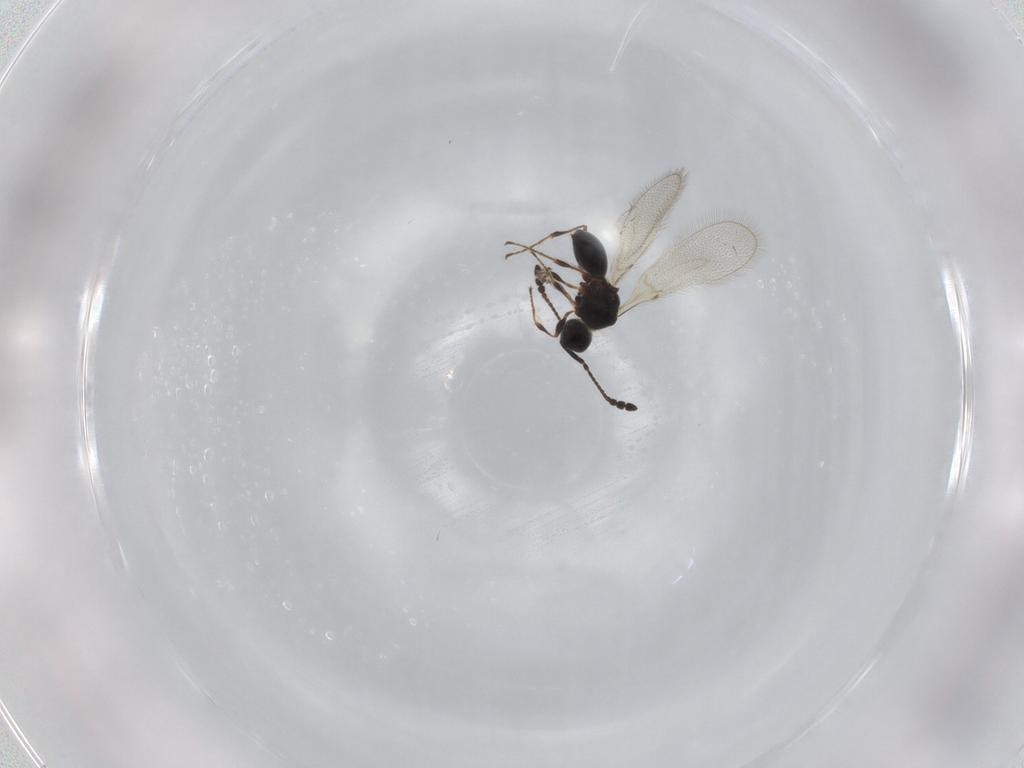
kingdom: Animalia
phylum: Arthropoda
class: Insecta
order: Hymenoptera
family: Diapriidae
